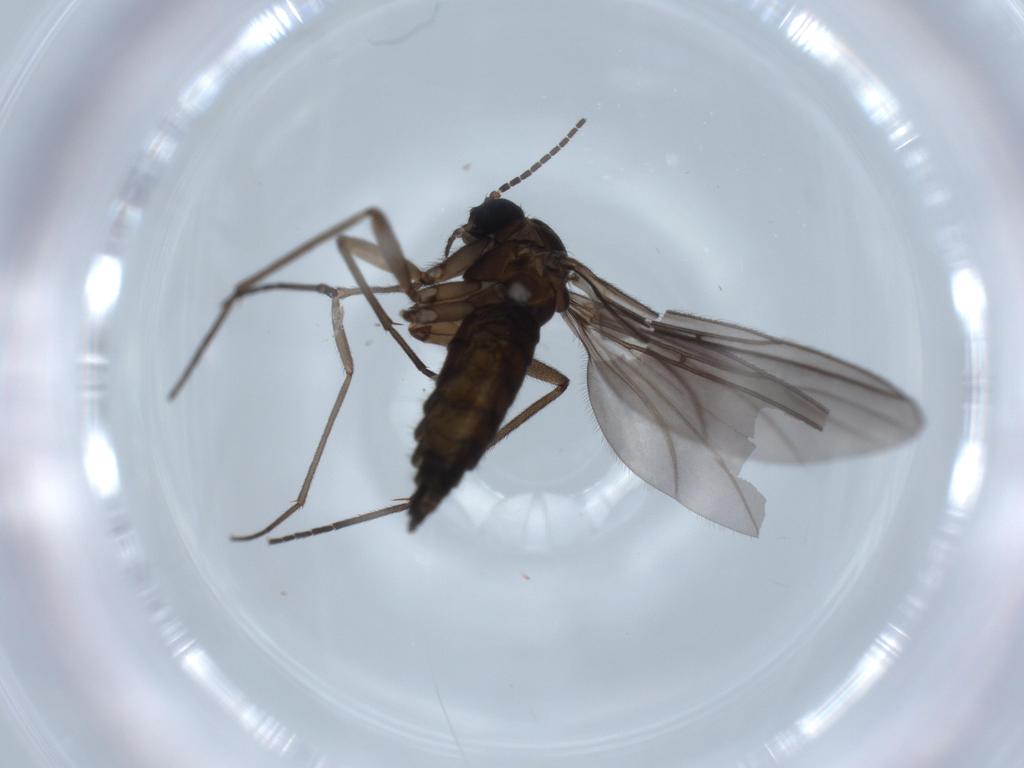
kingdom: Animalia
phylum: Arthropoda
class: Insecta
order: Diptera
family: Sciaridae
